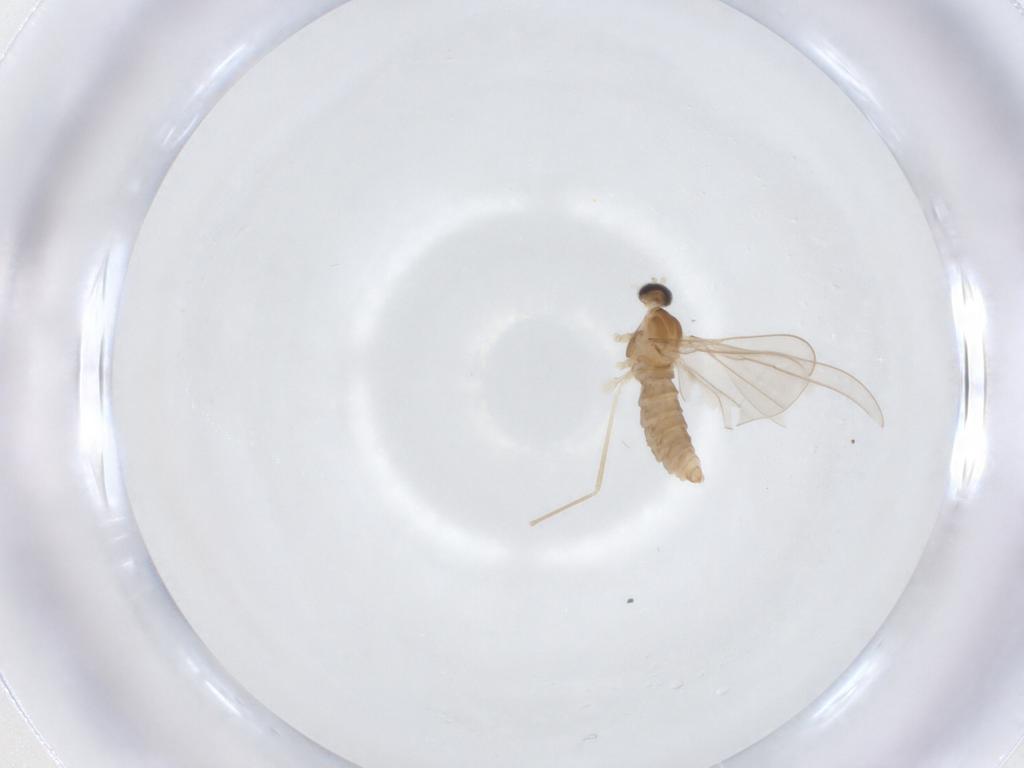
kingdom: Animalia
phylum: Arthropoda
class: Insecta
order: Diptera
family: Cecidomyiidae
